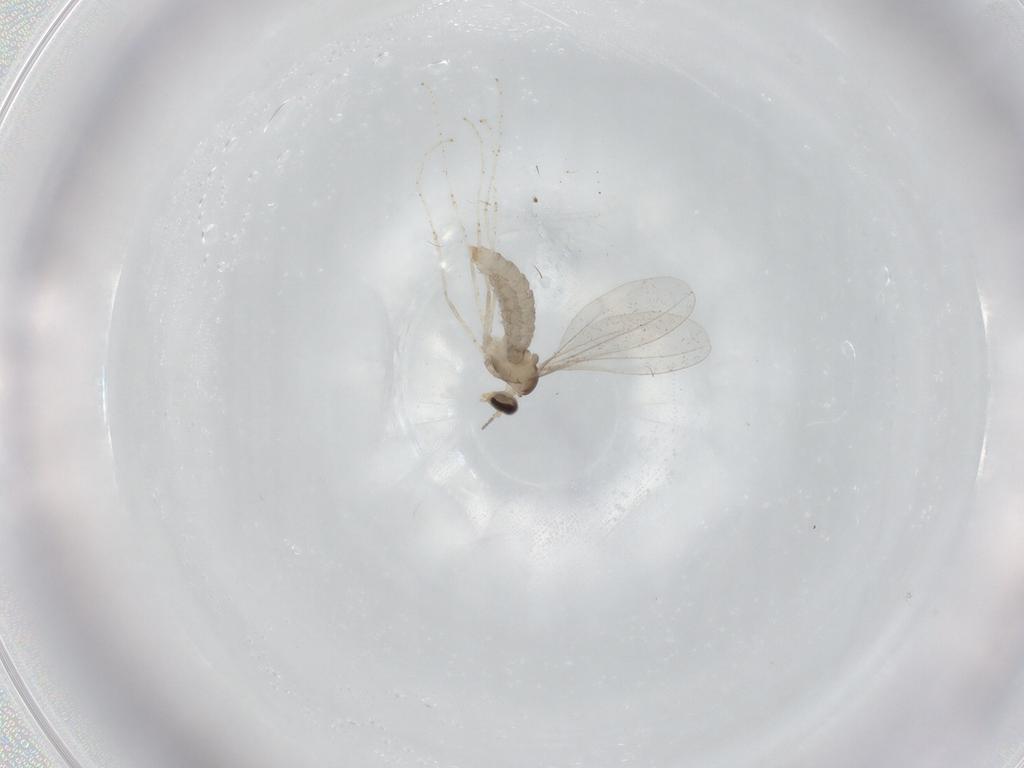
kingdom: Animalia
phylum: Arthropoda
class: Insecta
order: Diptera
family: Cecidomyiidae
